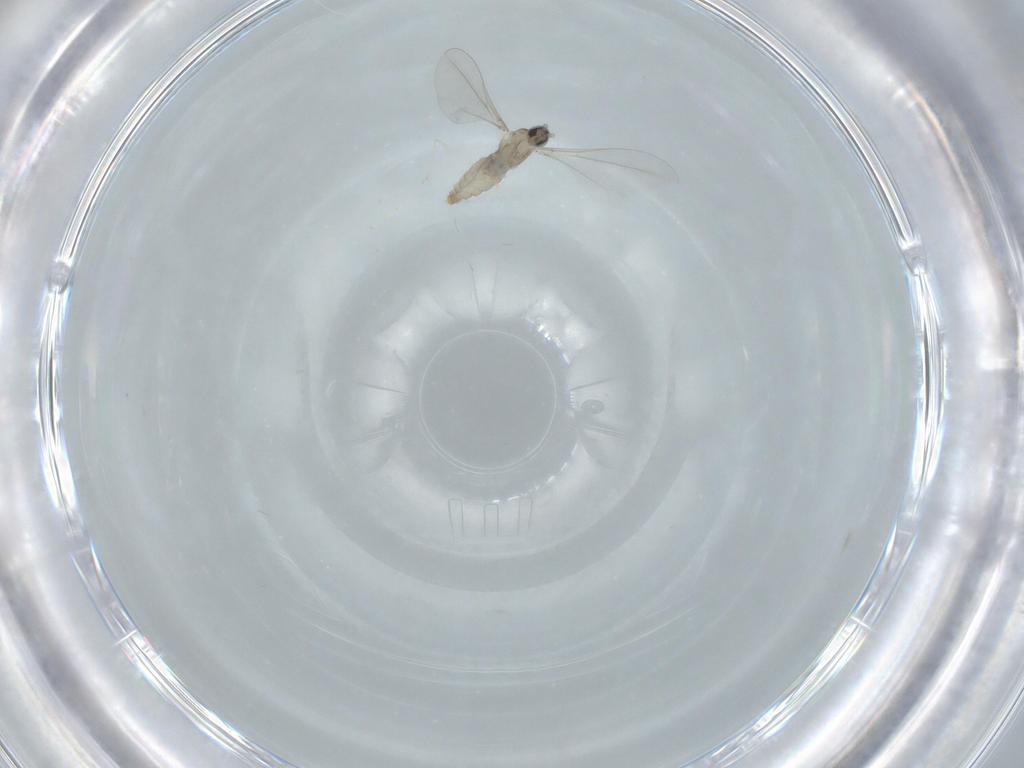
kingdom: Animalia
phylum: Arthropoda
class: Insecta
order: Diptera
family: Cecidomyiidae
